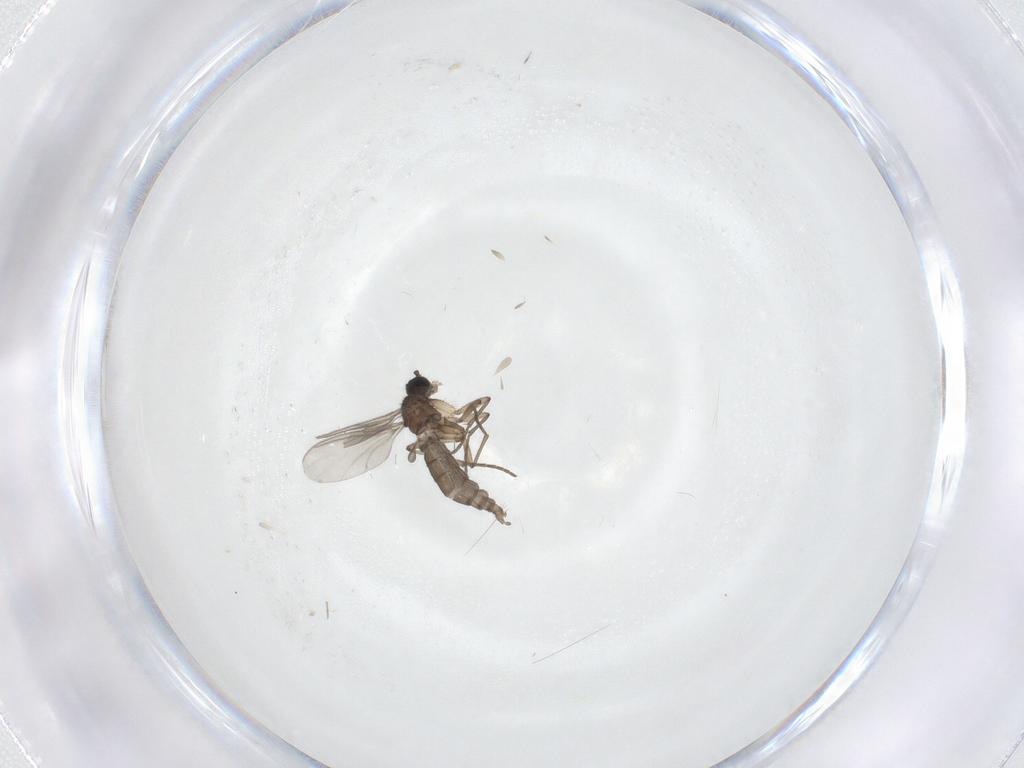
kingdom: Animalia
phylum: Arthropoda
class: Insecta
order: Diptera
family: Sciaridae
